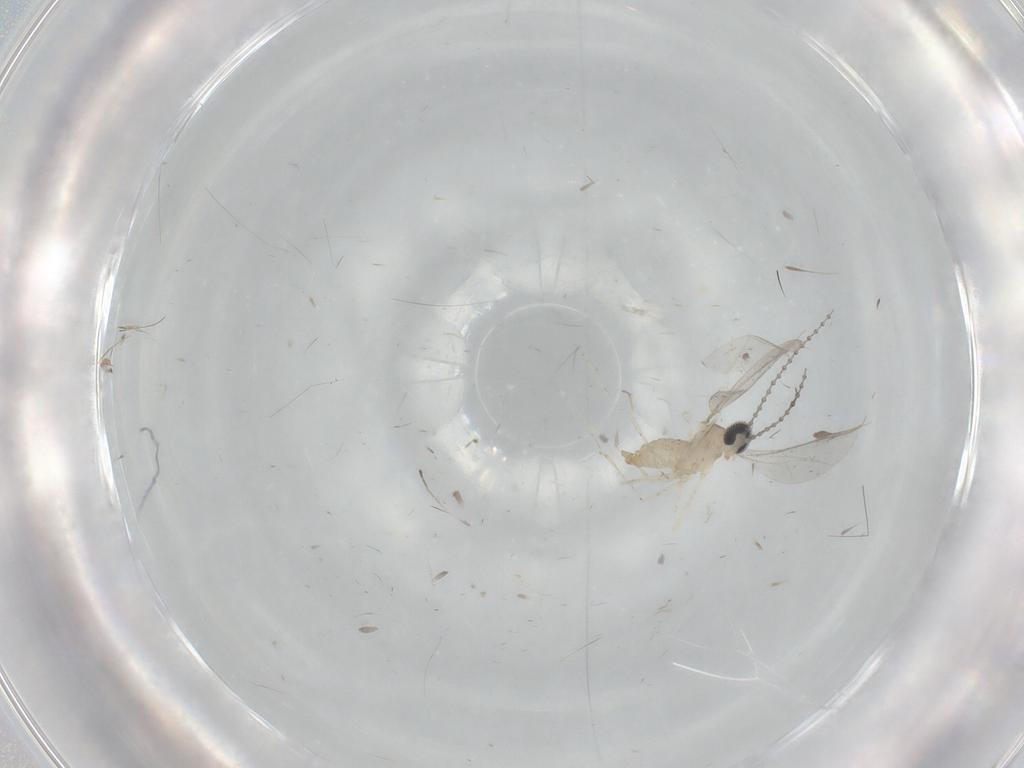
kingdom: Animalia
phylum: Arthropoda
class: Insecta
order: Diptera
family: Cecidomyiidae
